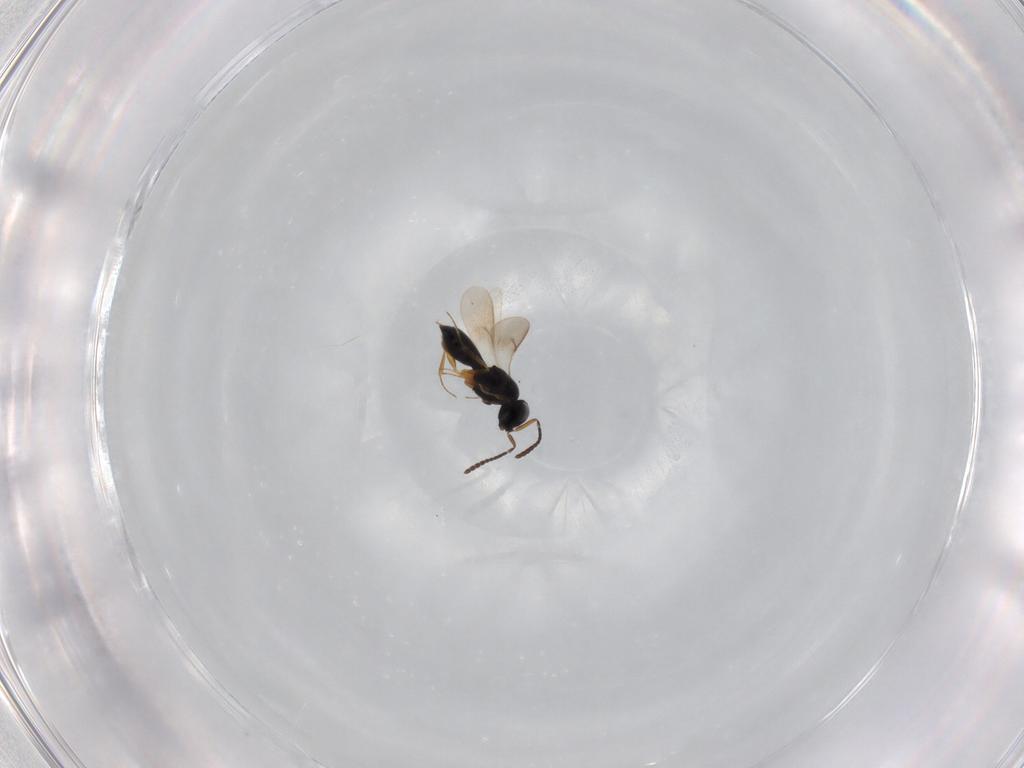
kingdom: Animalia
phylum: Arthropoda
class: Insecta
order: Hymenoptera
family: Scelionidae
